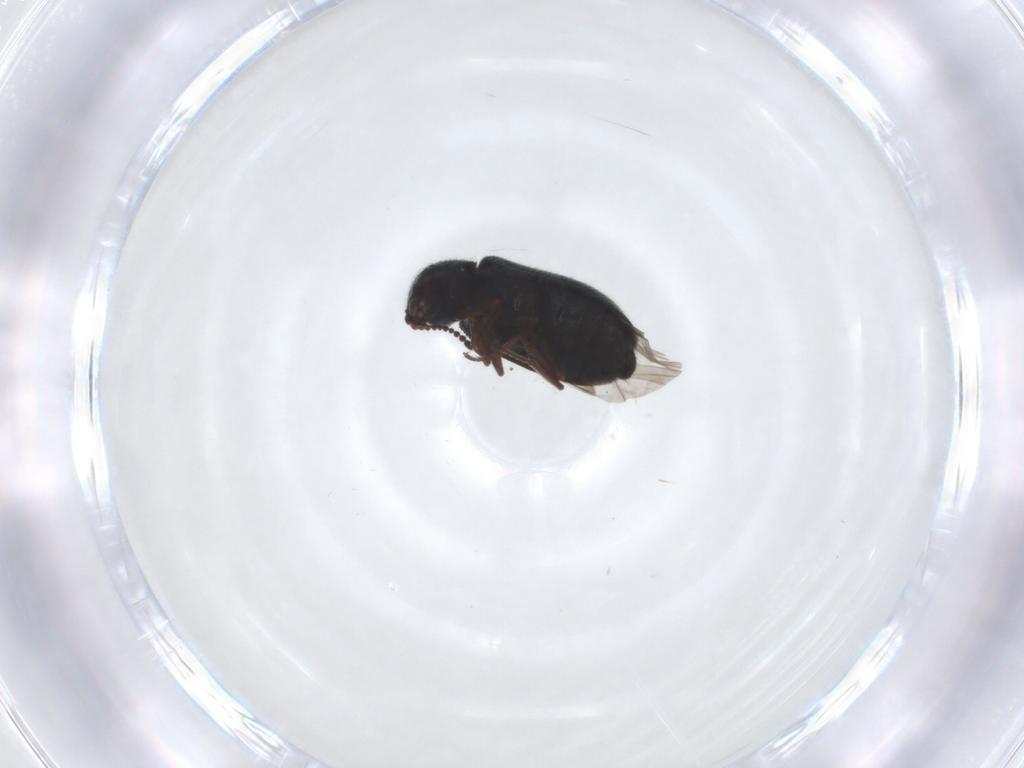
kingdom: Animalia
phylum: Arthropoda
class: Insecta
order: Coleoptera
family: Melyridae
